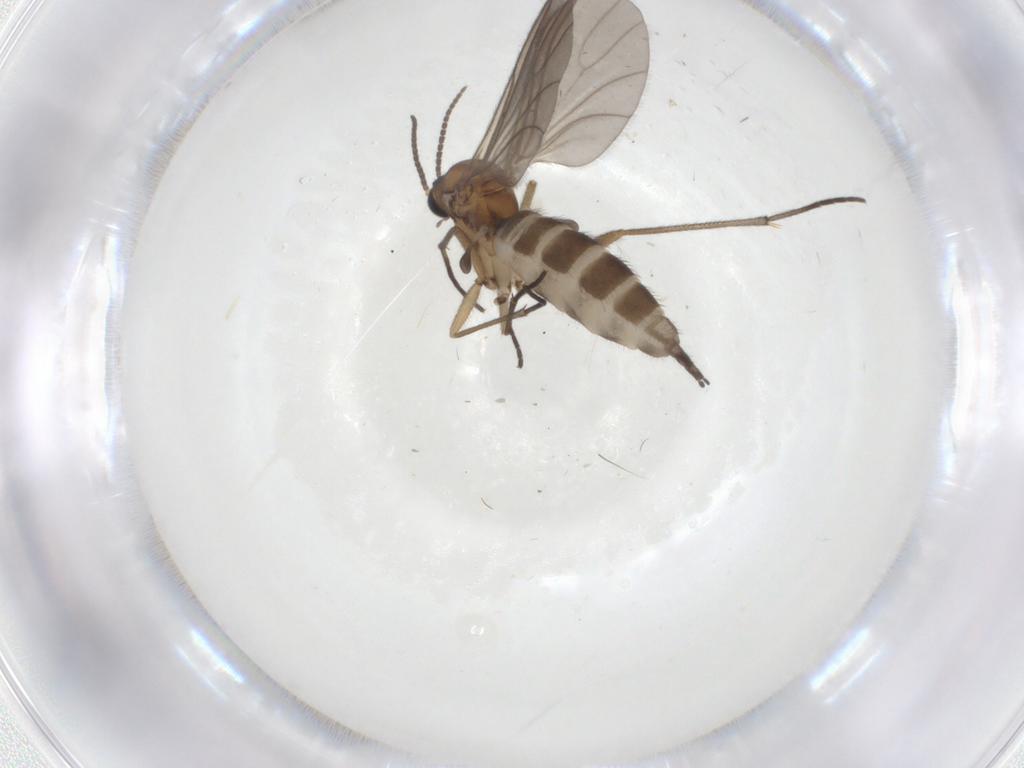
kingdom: Animalia
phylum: Arthropoda
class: Insecta
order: Diptera
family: Sciaridae
